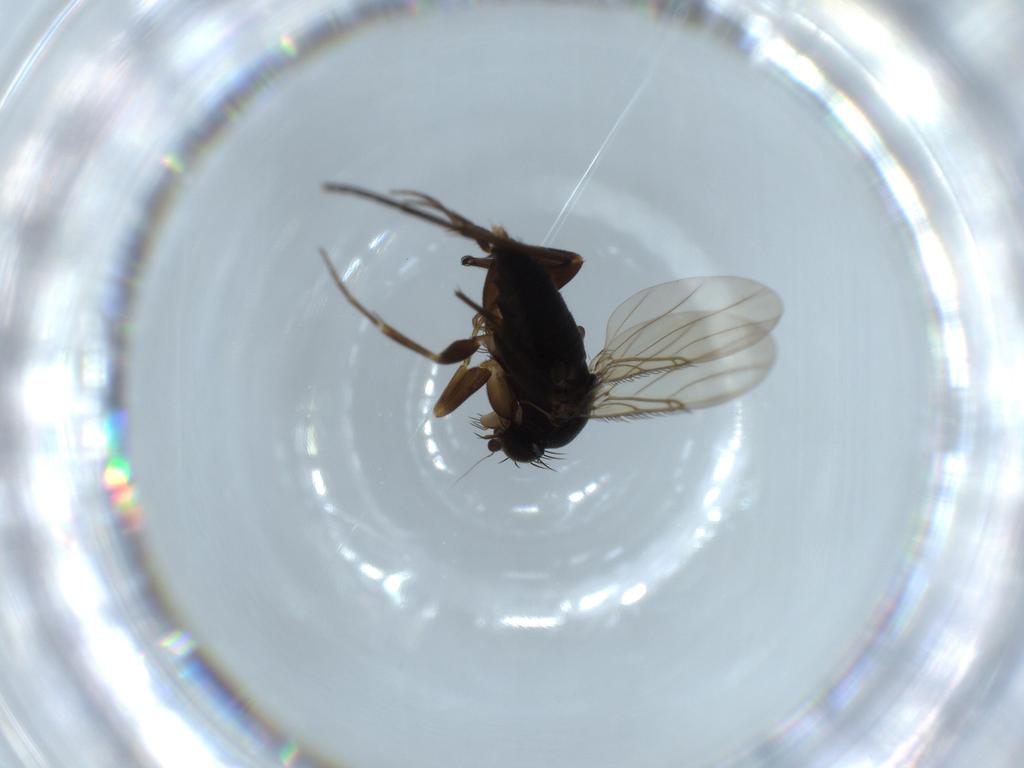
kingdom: Animalia
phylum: Arthropoda
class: Insecta
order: Diptera
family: Phoridae
